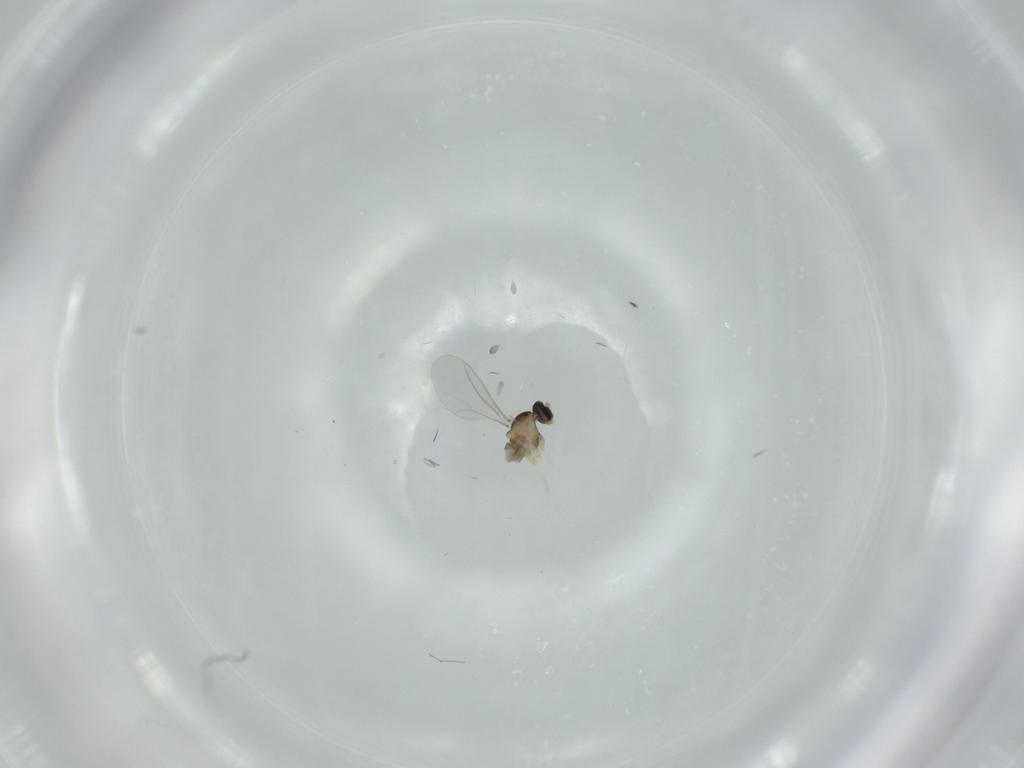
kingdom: Animalia
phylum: Arthropoda
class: Insecta
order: Diptera
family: Cecidomyiidae
